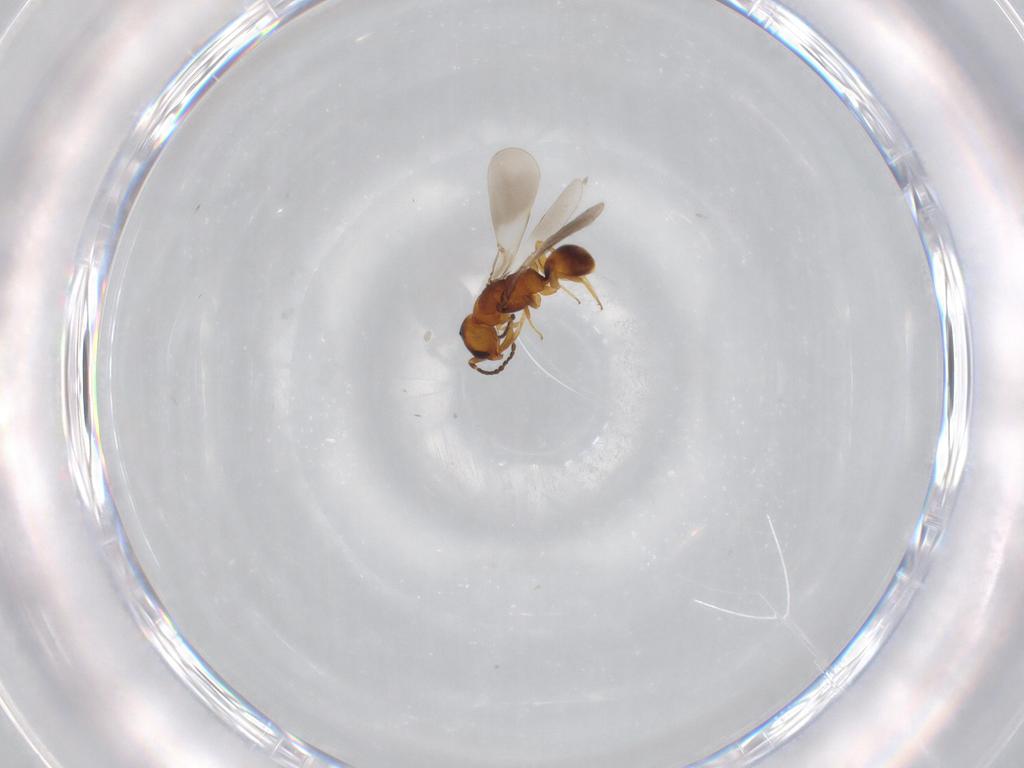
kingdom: Animalia
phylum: Arthropoda
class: Insecta
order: Hymenoptera
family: Bethylidae
